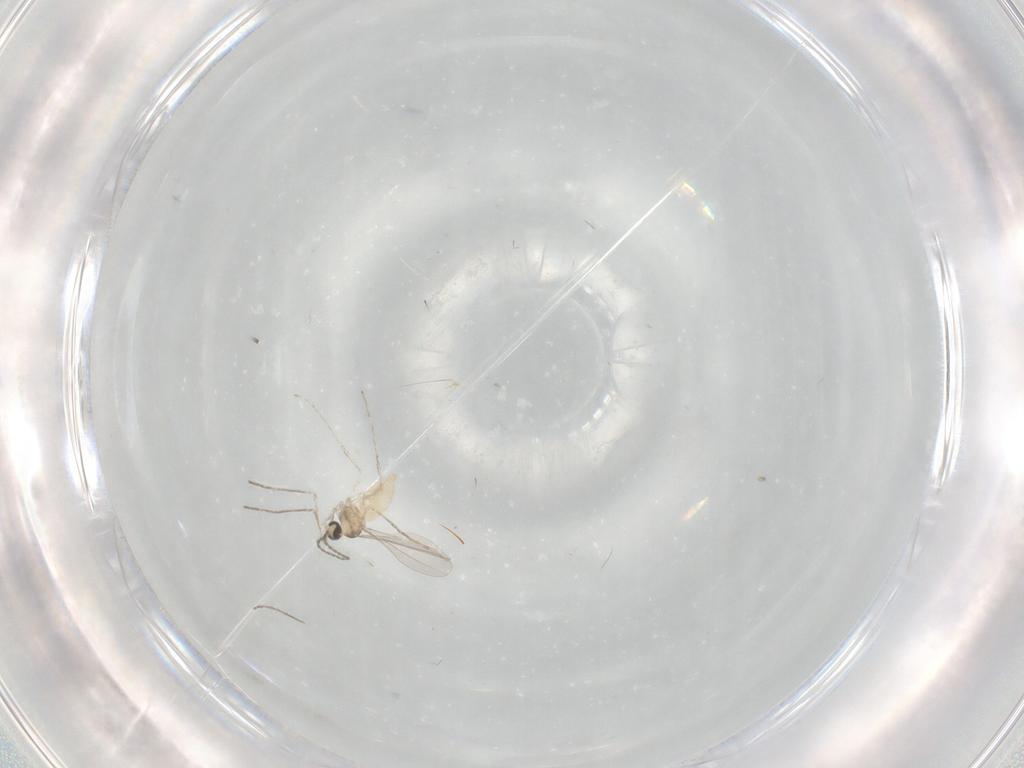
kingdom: Animalia
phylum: Arthropoda
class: Insecta
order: Diptera
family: Cecidomyiidae
